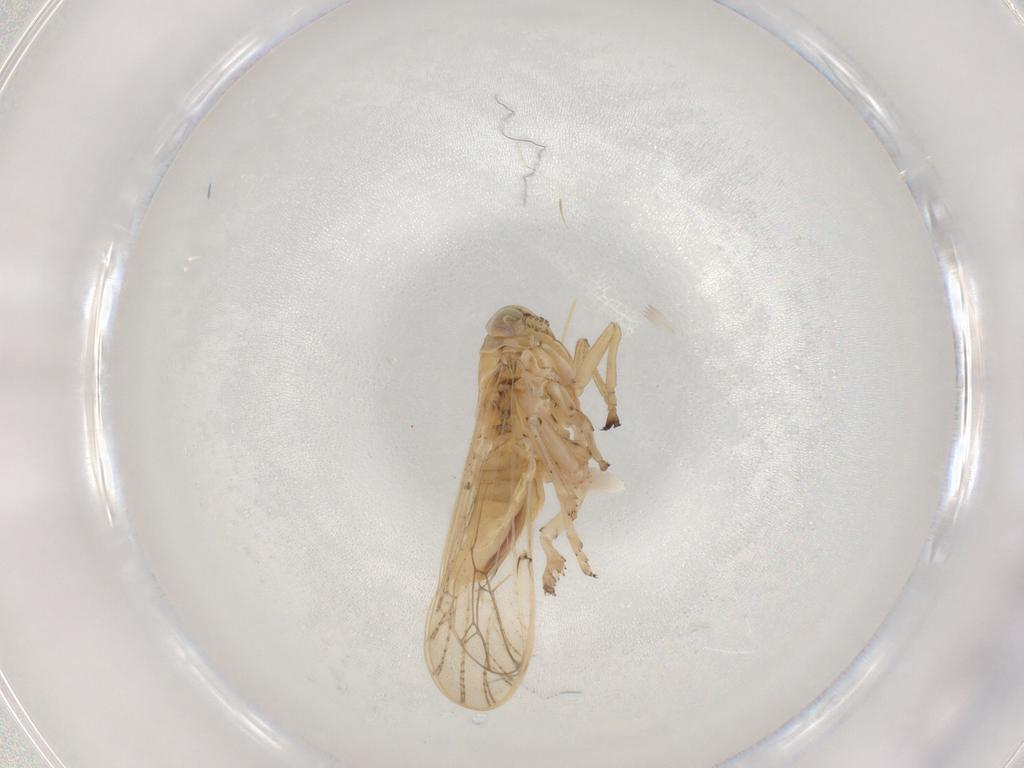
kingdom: Animalia
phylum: Arthropoda
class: Insecta
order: Hemiptera
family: Delphacidae
